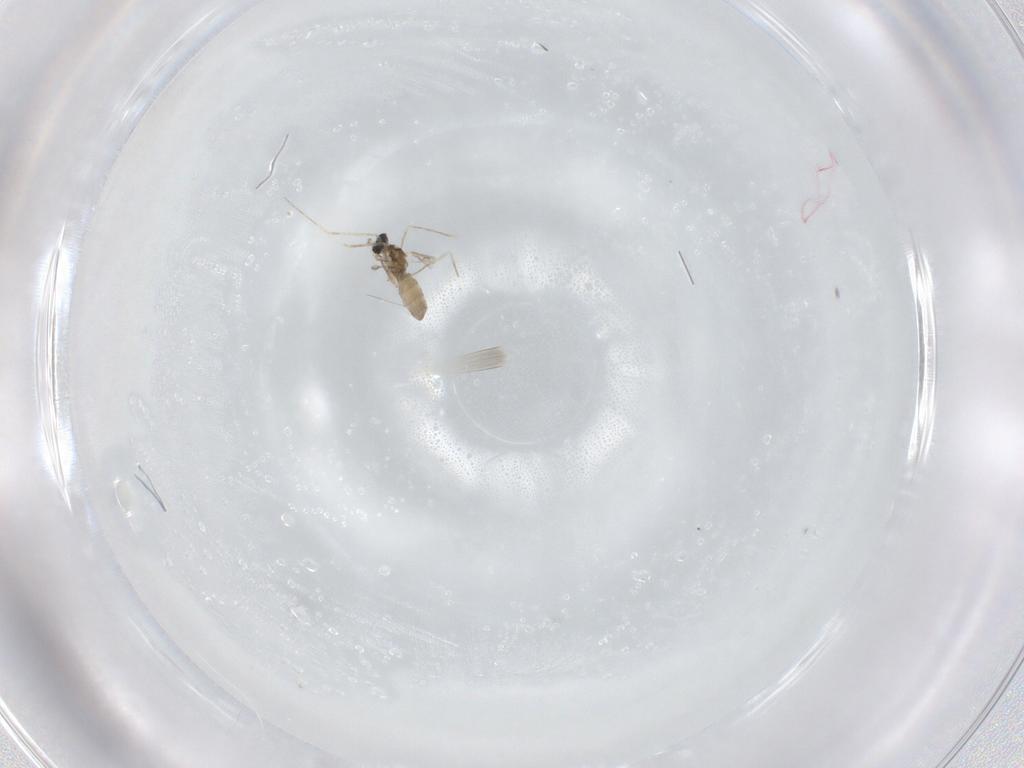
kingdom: Animalia
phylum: Arthropoda
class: Insecta
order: Diptera
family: Cecidomyiidae
